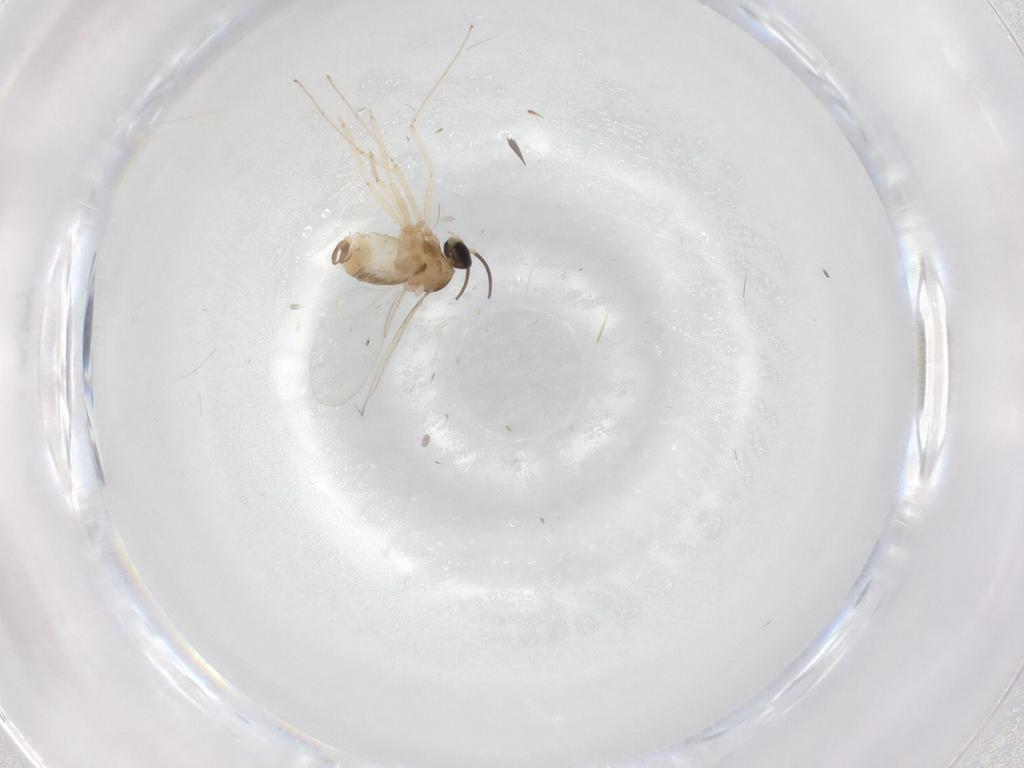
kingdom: Animalia
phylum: Arthropoda
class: Insecta
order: Diptera
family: Cecidomyiidae
